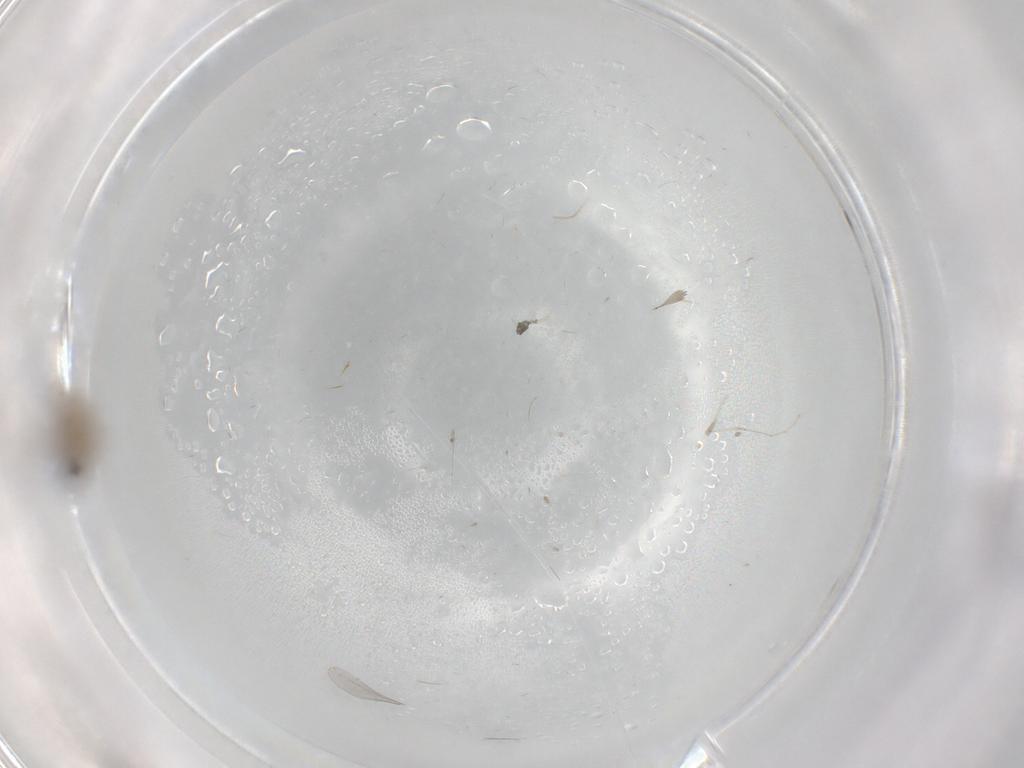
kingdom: Animalia
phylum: Arthropoda
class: Insecta
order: Diptera
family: Cecidomyiidae
